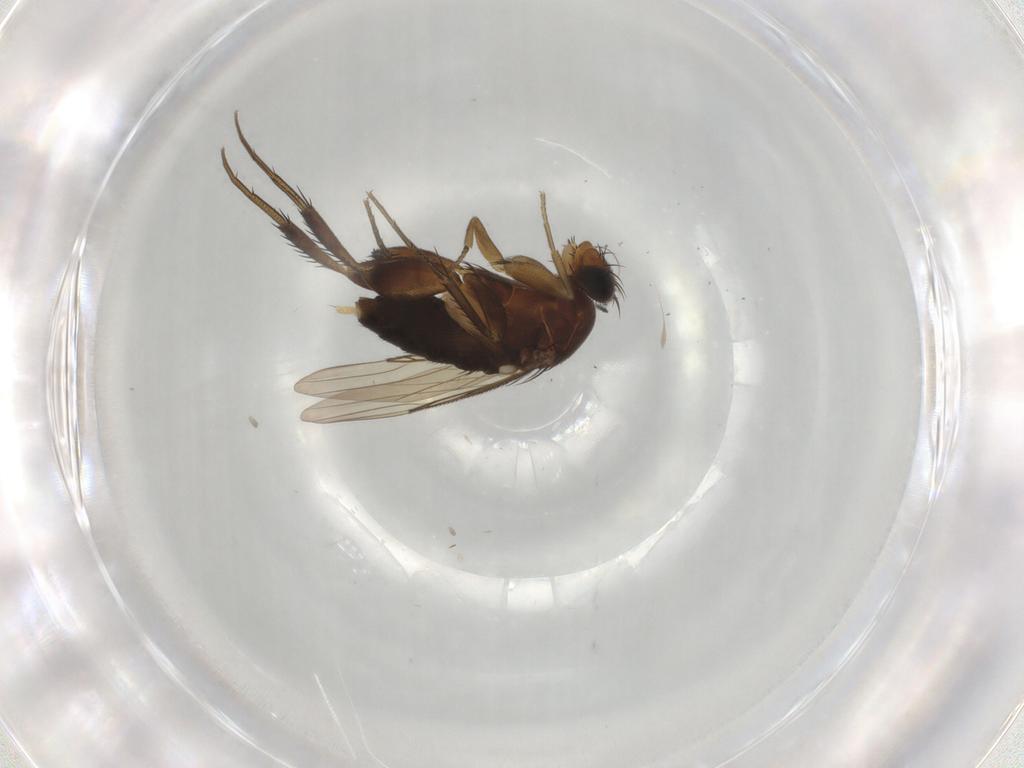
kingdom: Animalia
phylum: Arthropoda
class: Insecta
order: Diptera
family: Phoridae
